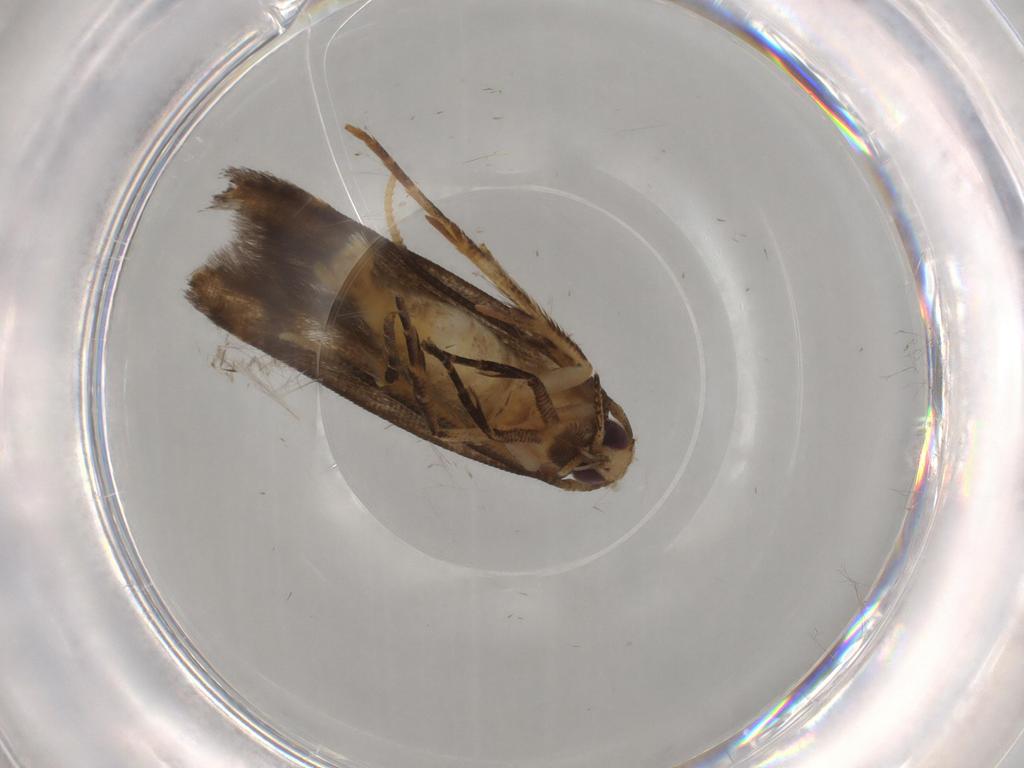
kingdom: Animalia
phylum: Arthropoda
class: Insecta
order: Lepidoptera
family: Cosmopterigidae
